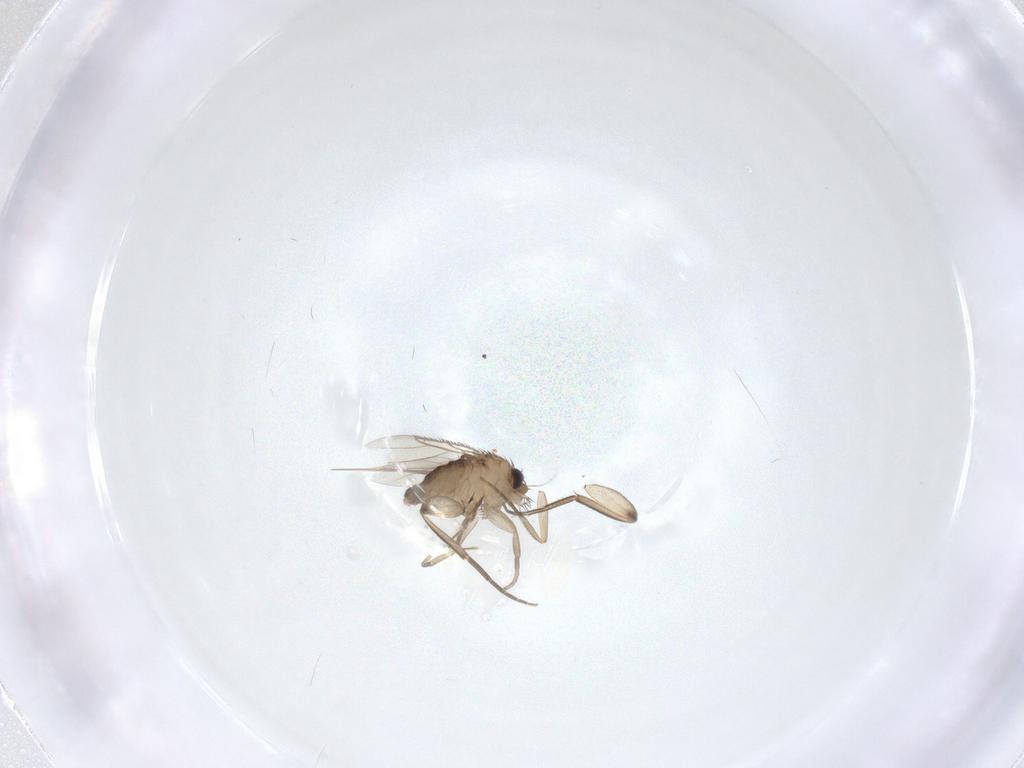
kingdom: Animalia
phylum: Arthropoda
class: Insecta
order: Diptera
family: Phoridae
